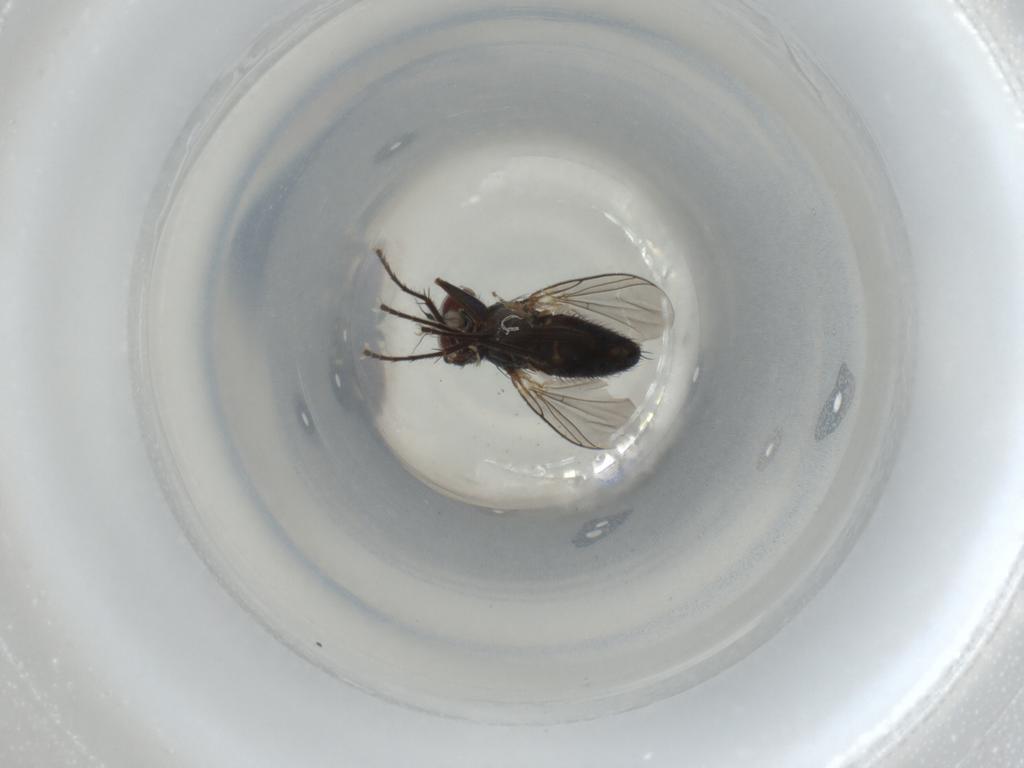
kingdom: Animalia
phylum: Arthropoda
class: Insecta
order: Diptera
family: Dolichopodidae
